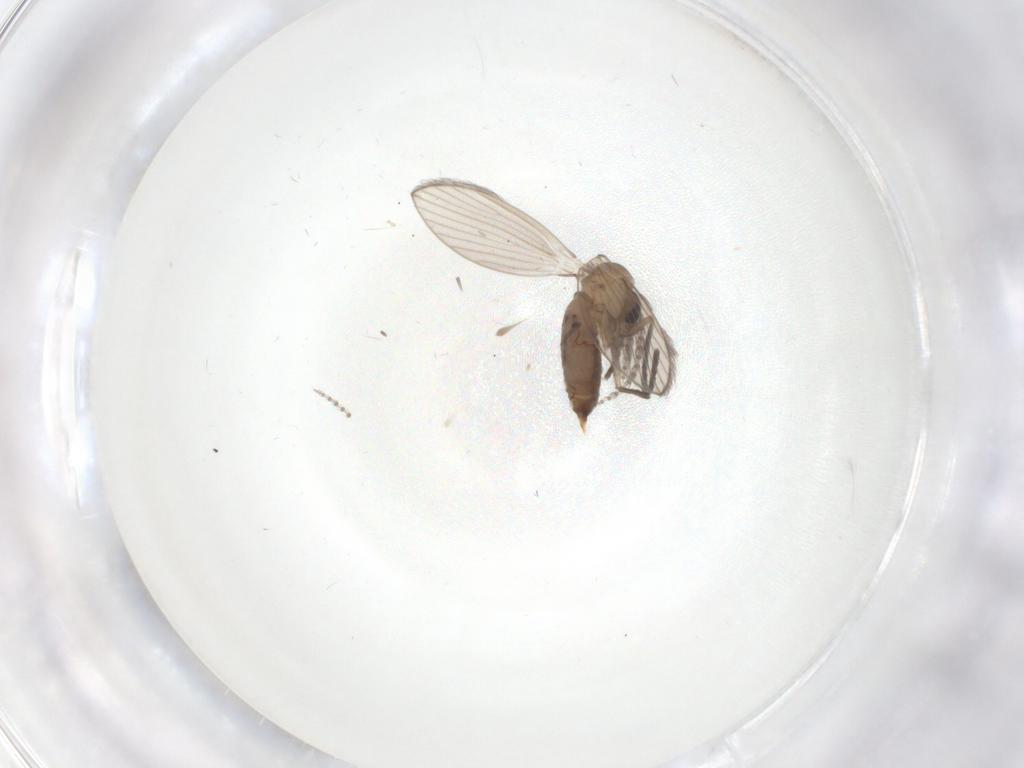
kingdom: Animalia
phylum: Arthropoda
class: Insecta
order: Diptera
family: Psychodidae
